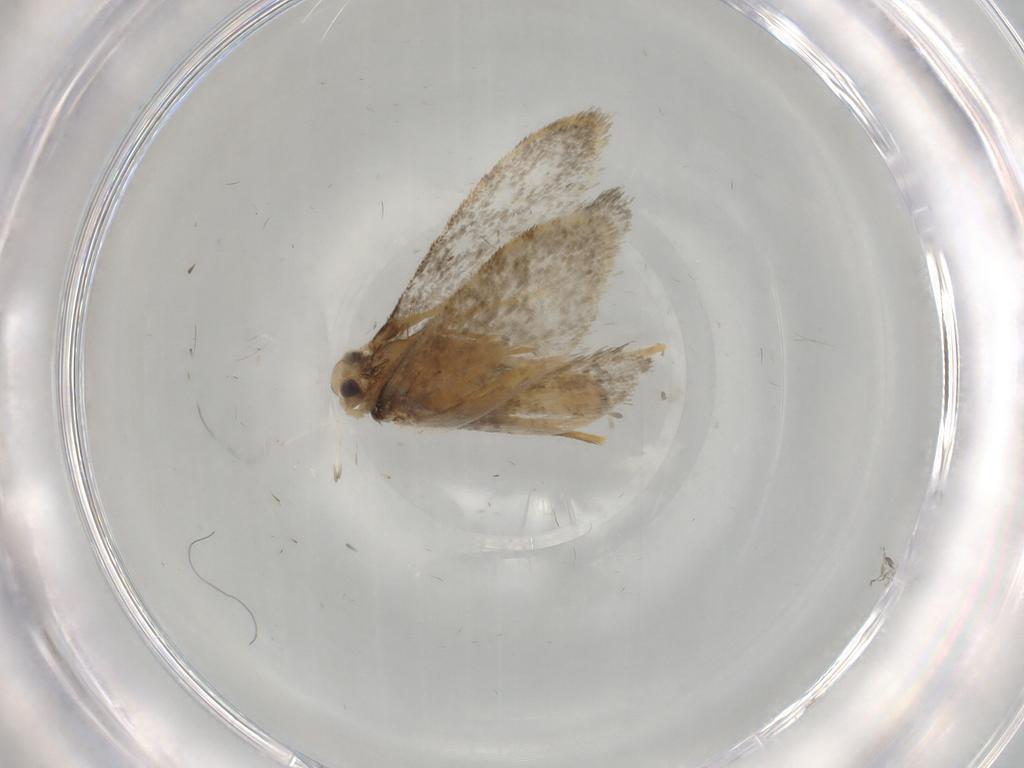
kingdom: Animalia
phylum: Arthropoda
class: Insecta
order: Lepidoptera
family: Psychidae
